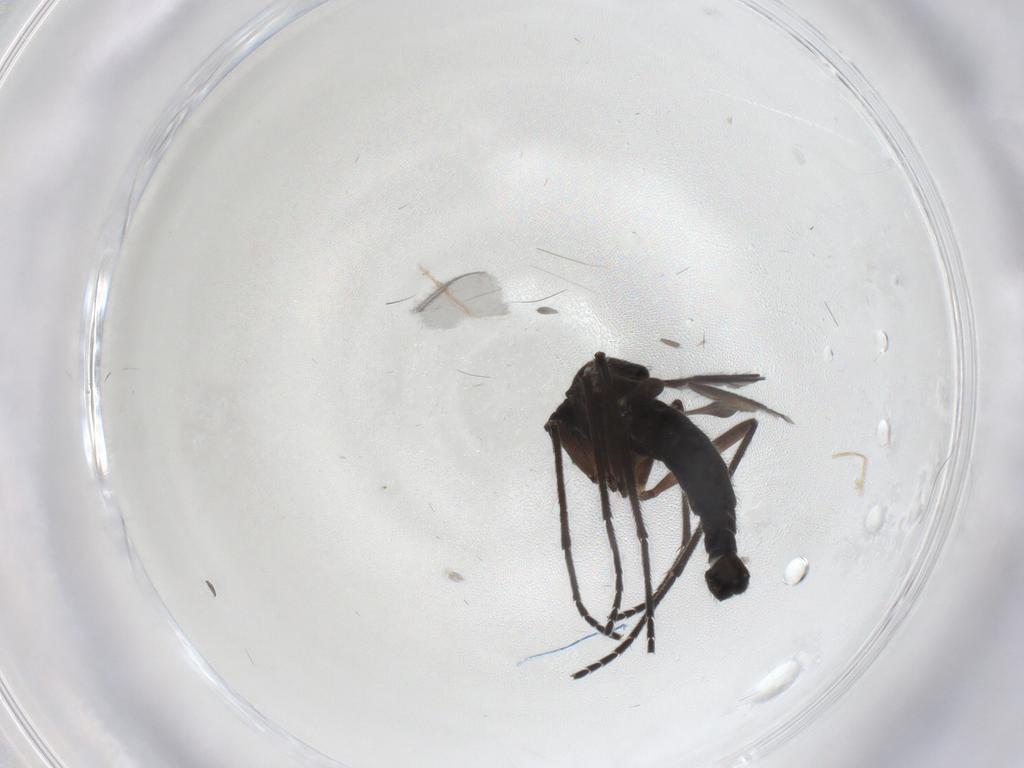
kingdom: Animalia
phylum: Arthropoda
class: Insecta
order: Diptera
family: Sciaridae
